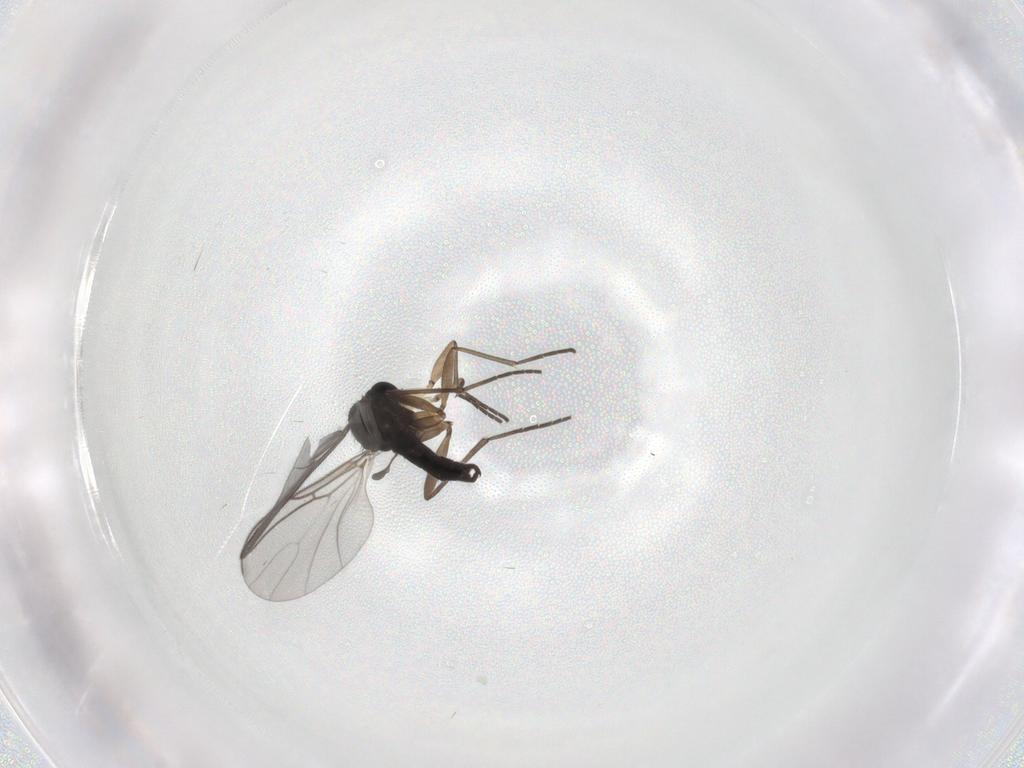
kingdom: Animalia
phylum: Arthropoda
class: Insecta
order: Diptera
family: Sciaridae
